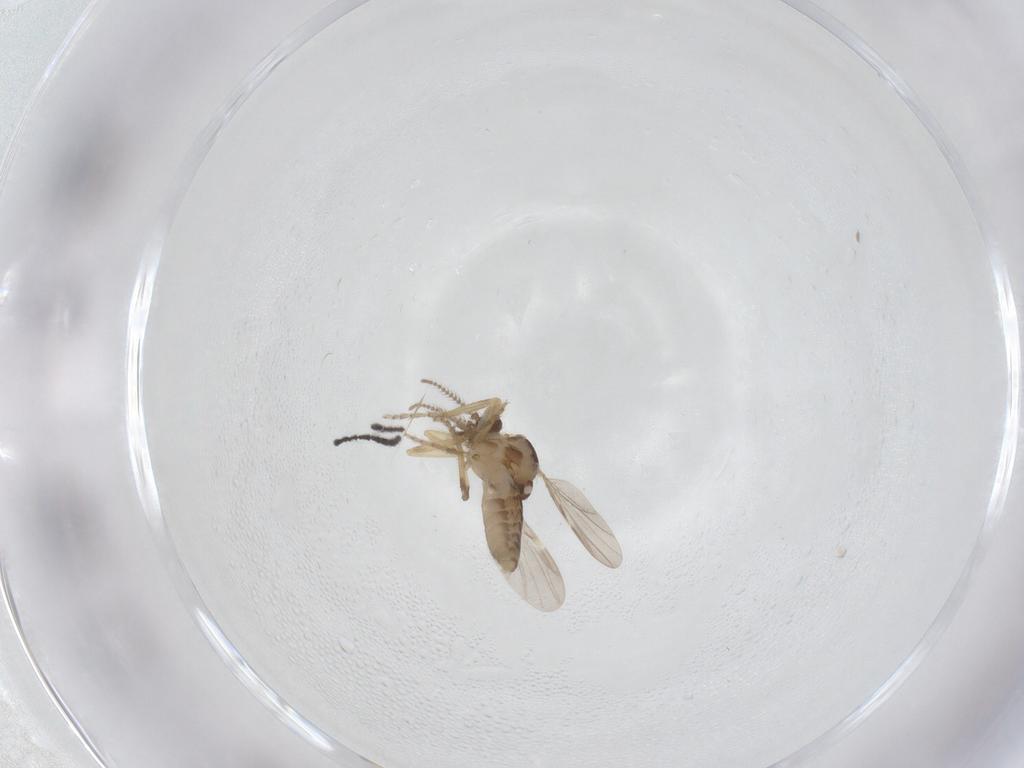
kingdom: Animalia
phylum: Arthropoda
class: Insecta
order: Diptera
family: Ceratopogonidae
